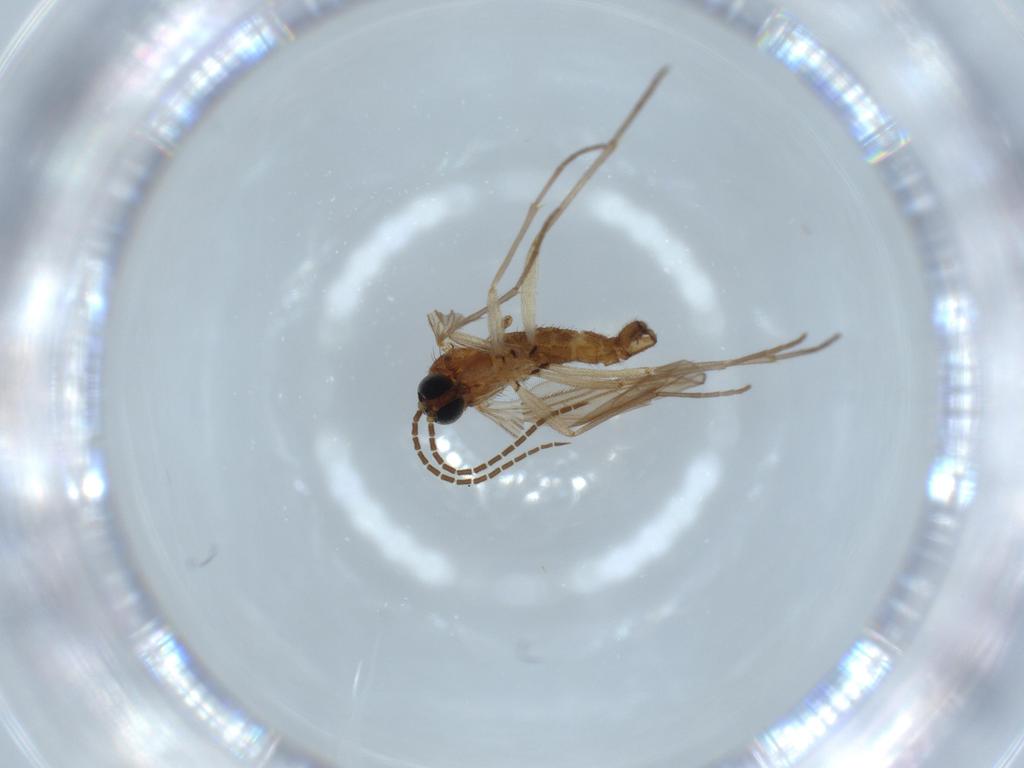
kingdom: Animalia
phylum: Arthropoda
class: Insecta
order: Diptera
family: Sciaridae
